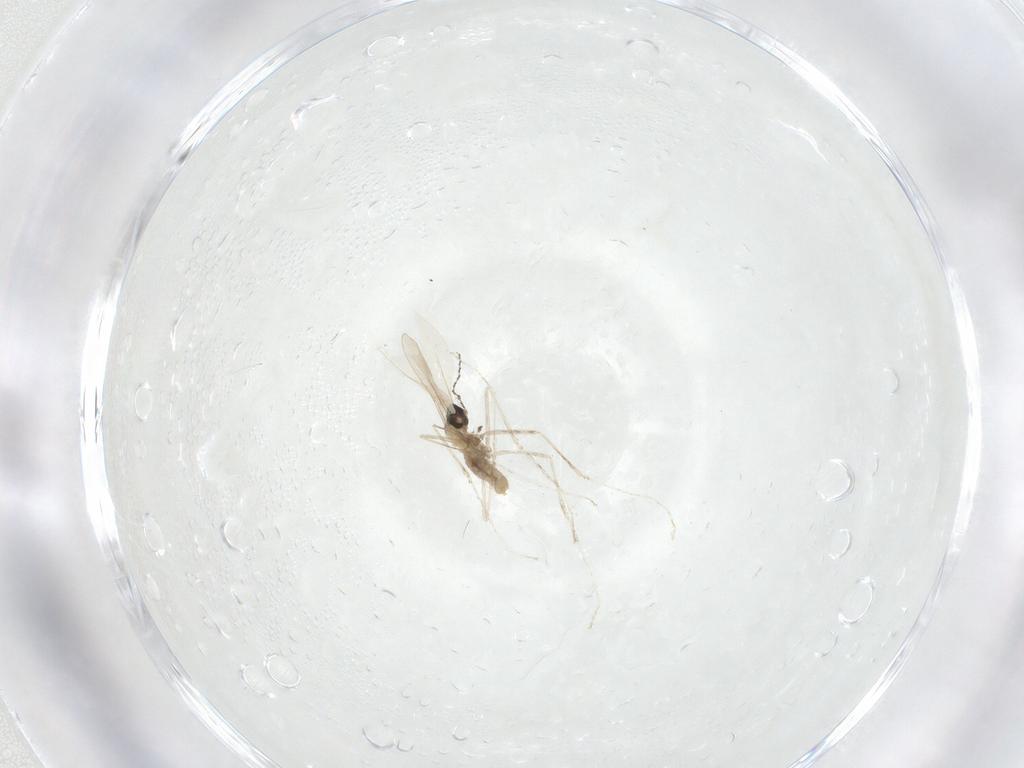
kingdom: Animalia
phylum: Arthropoda
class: Insecta
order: Diptera
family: Cecidomyiidae
